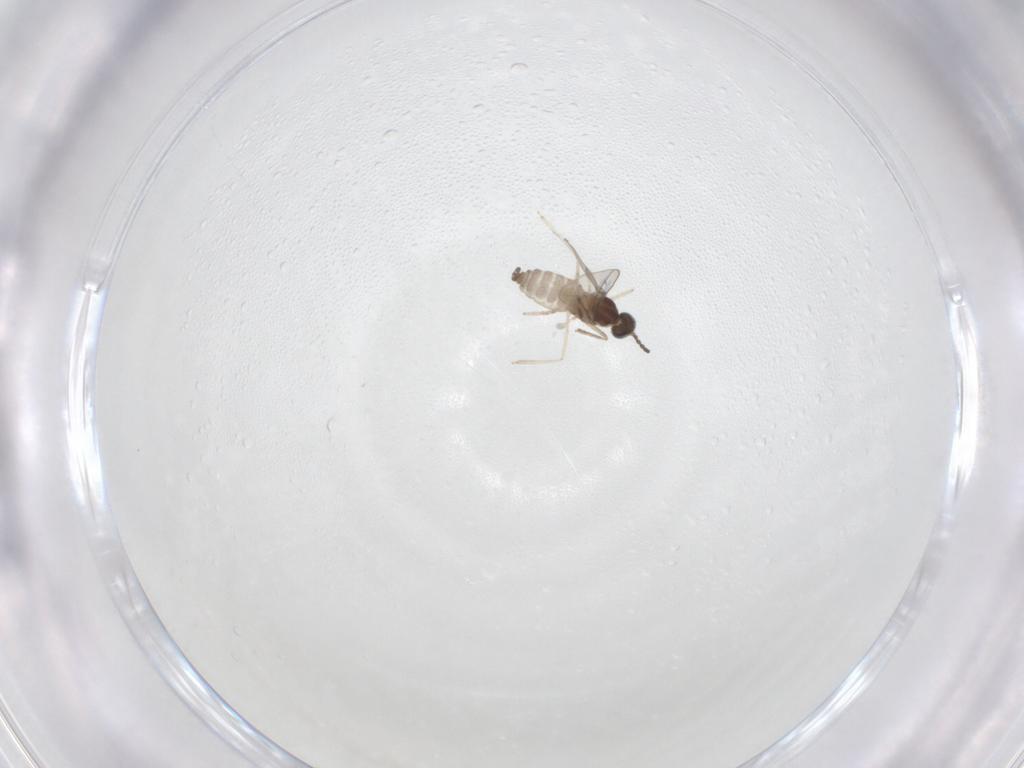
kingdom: Animalia
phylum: Arthropoda
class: Insecta
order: Diptera
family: Cecidomyiidae
